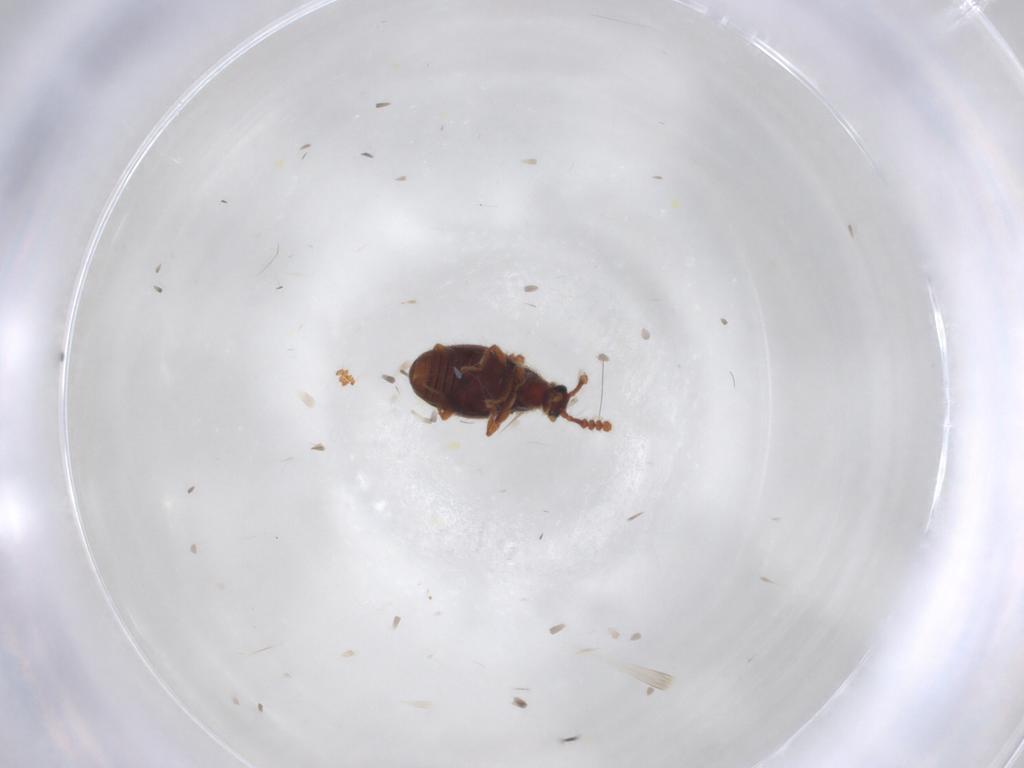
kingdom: Animalia
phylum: Arthropoda
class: Insecta
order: Coleoptera
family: Staphylinidae
